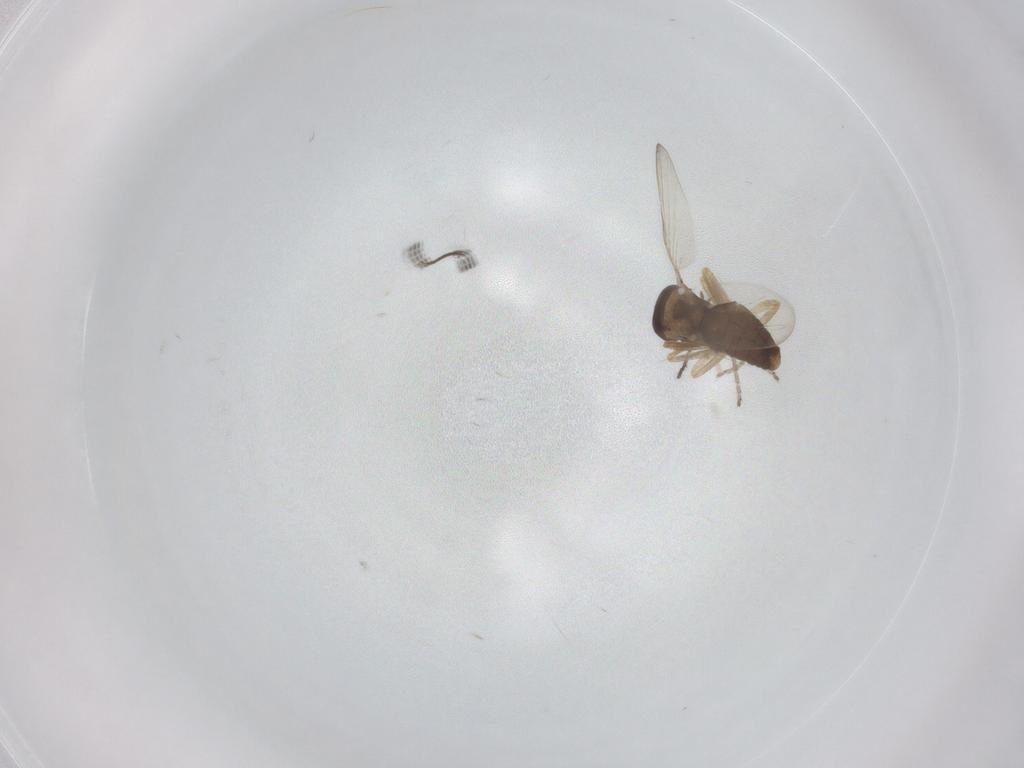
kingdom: Animalia
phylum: Arthropoda
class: Insecta
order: Diptera
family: Ceratopogonidae
